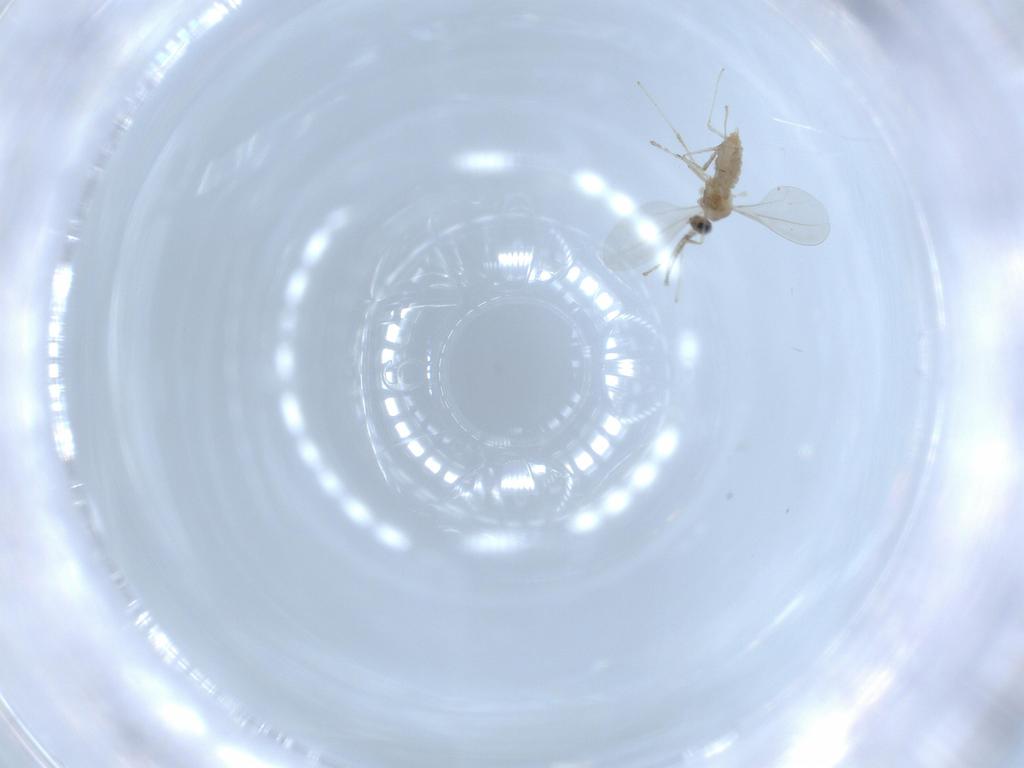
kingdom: Animalia
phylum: Arthropoda
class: Insecta
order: Diptera
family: Cecidomyiidae
